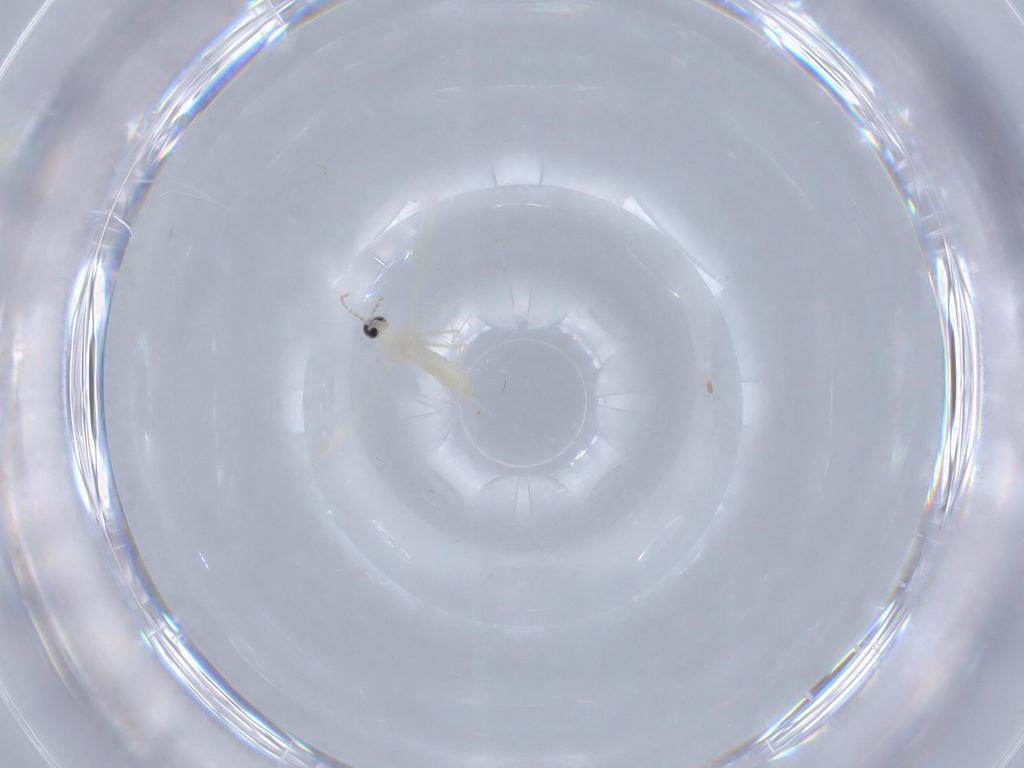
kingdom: Animalia
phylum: Arthropoda
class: Insecta
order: Diptera
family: Cecidomyiidae
